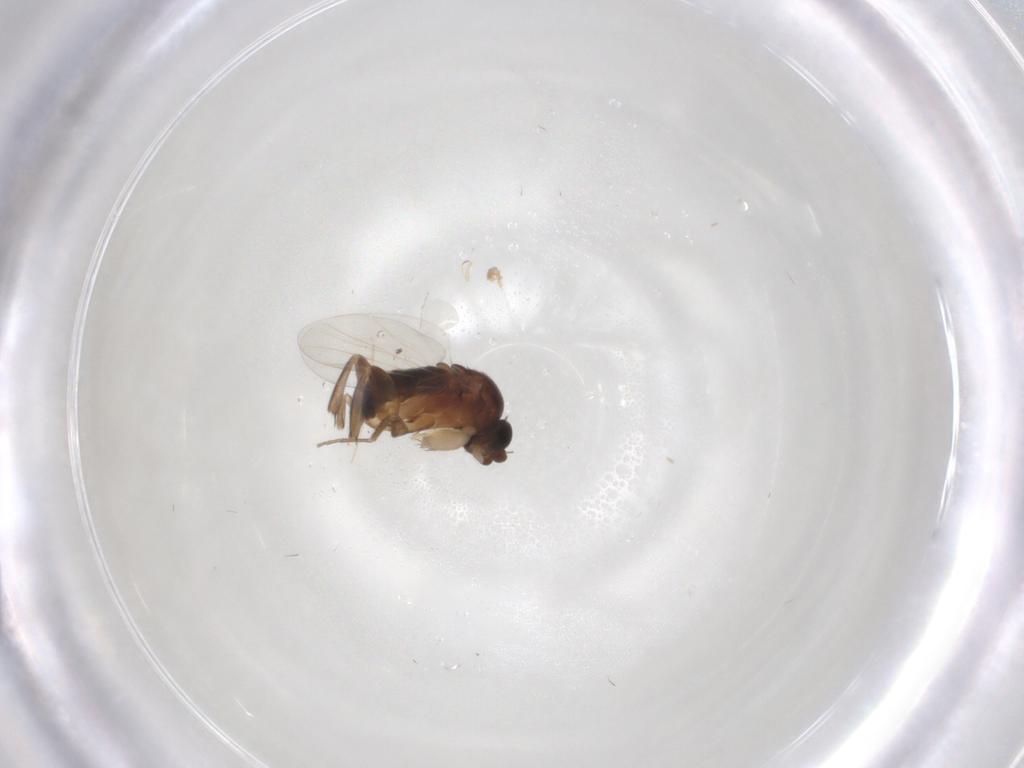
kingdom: Animalia
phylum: Arthropoda
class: Insecta
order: Diptera
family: Phoridae
